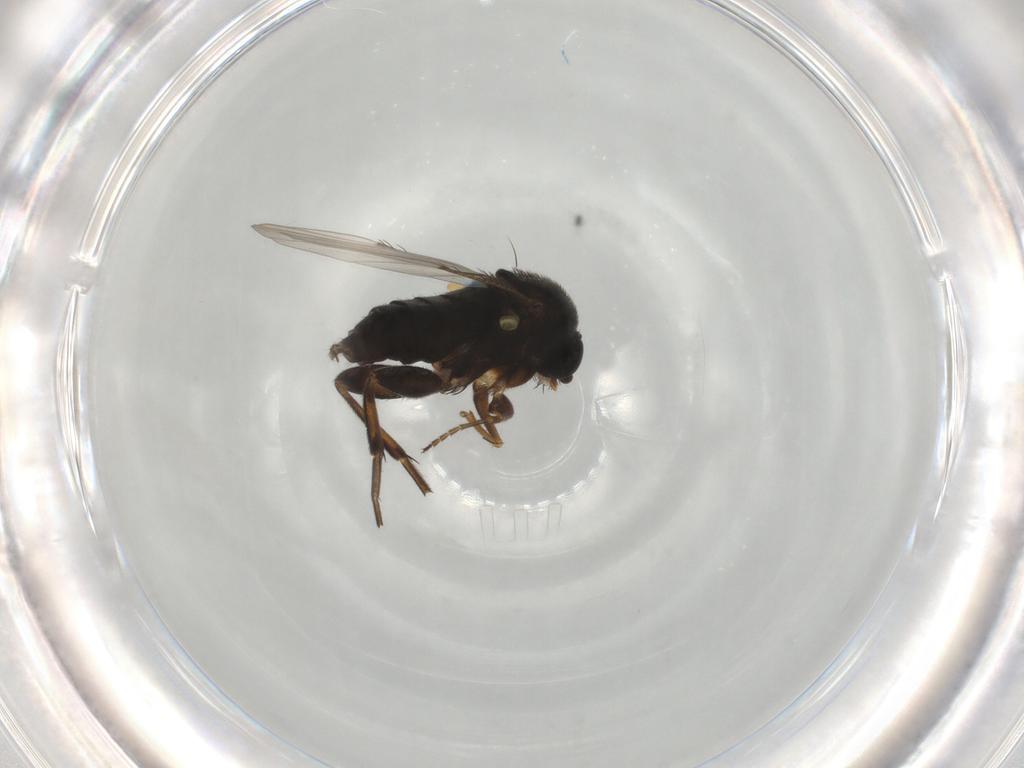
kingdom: Animalia
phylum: Arthropoda
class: Insecta
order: Diptera
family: Phoridae
